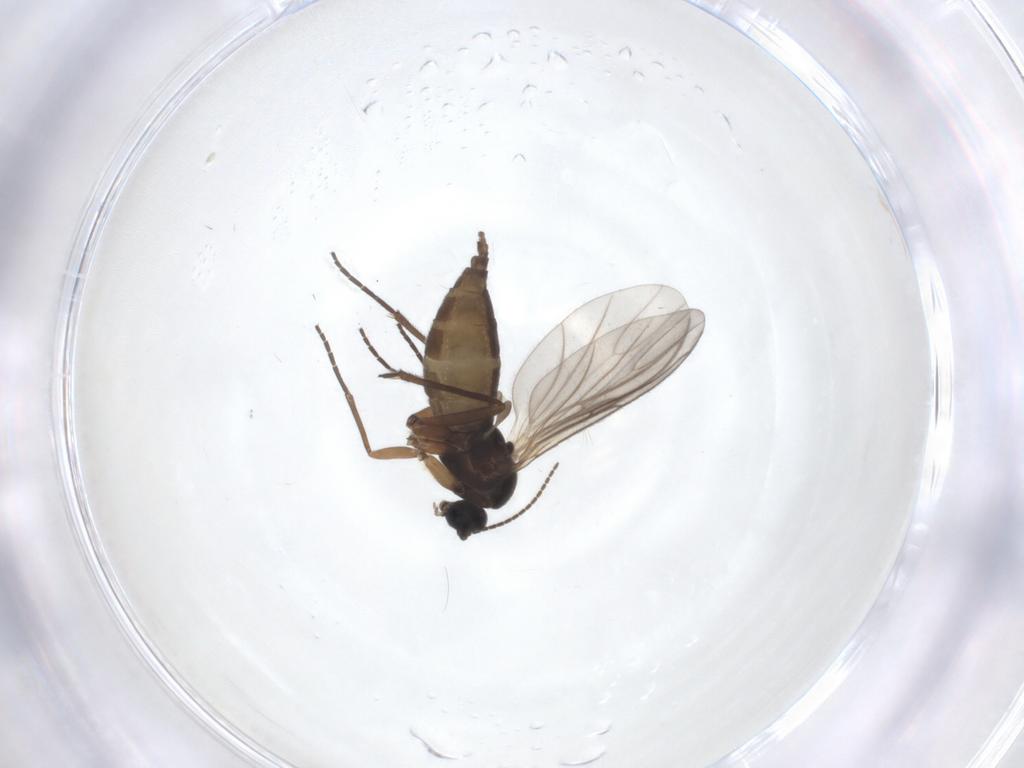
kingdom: Animalia
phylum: Arthropoda
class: Insecta
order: Diptera
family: Sciaridae
